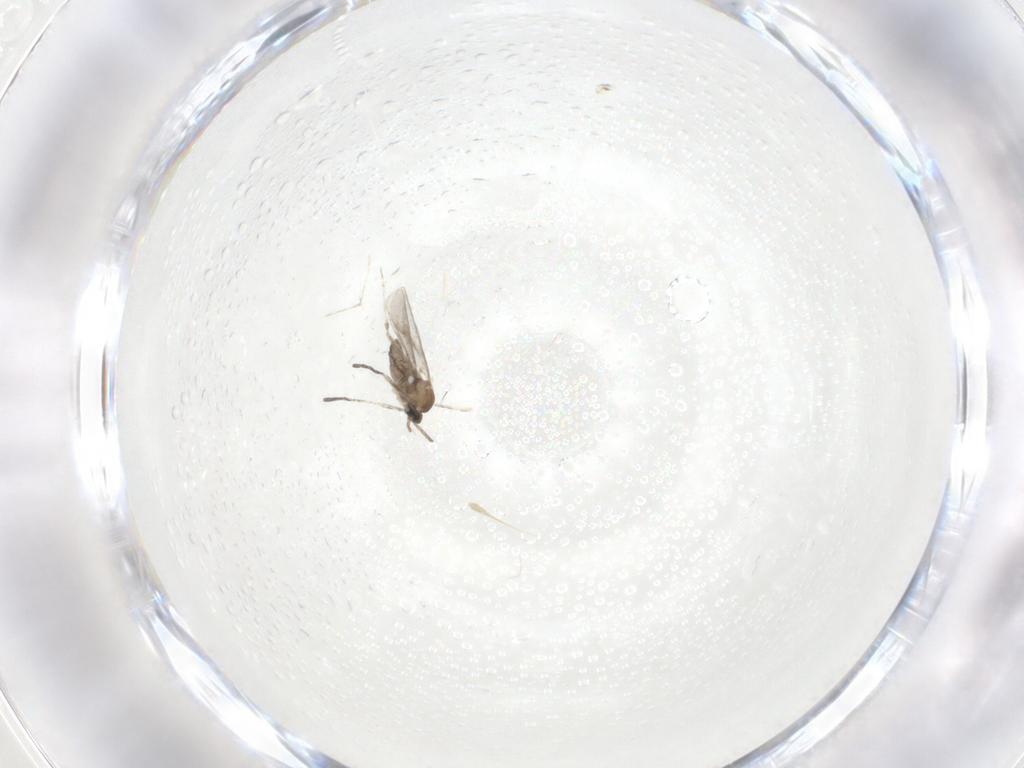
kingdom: Animalia
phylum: Arthropoda
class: Insecta
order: Diptera
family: Cecidomyiidae
